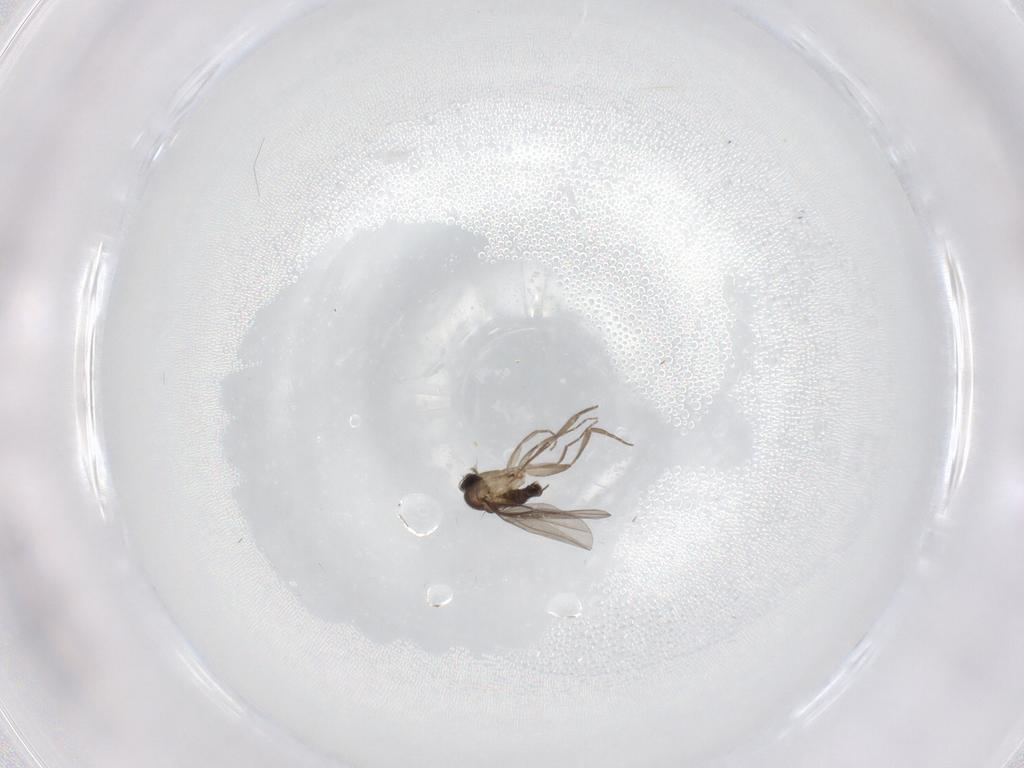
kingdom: Animalia
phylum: Arthropoda
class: Insecta
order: Diptera
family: Phoridae
